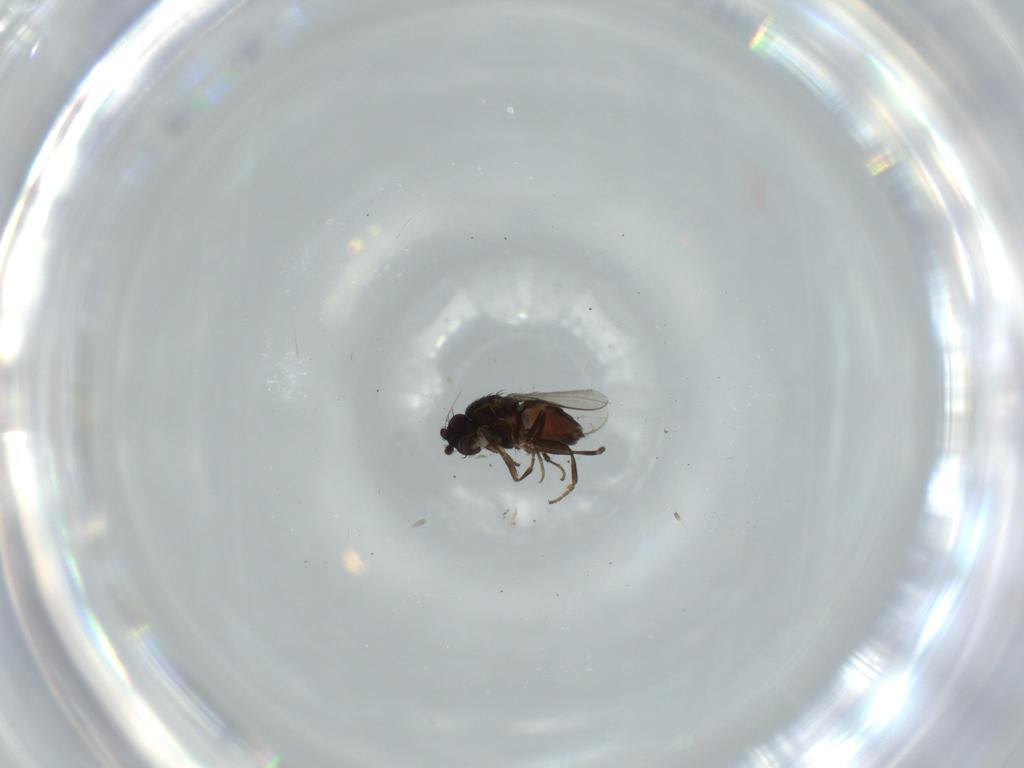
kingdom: Animalia
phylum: Arthropoda
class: Insecta
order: Diptera
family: Sphaeroceridae
